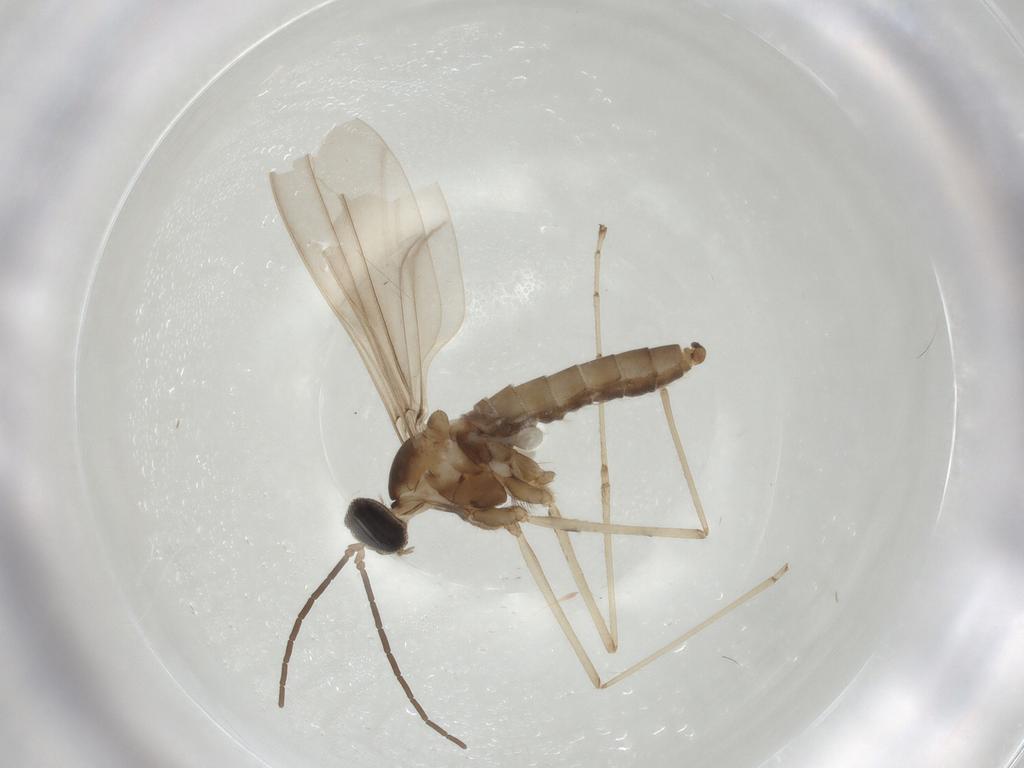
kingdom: Animalia
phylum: Arthropoda
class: Insecta
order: Diptera
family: Cecidomyiidae
